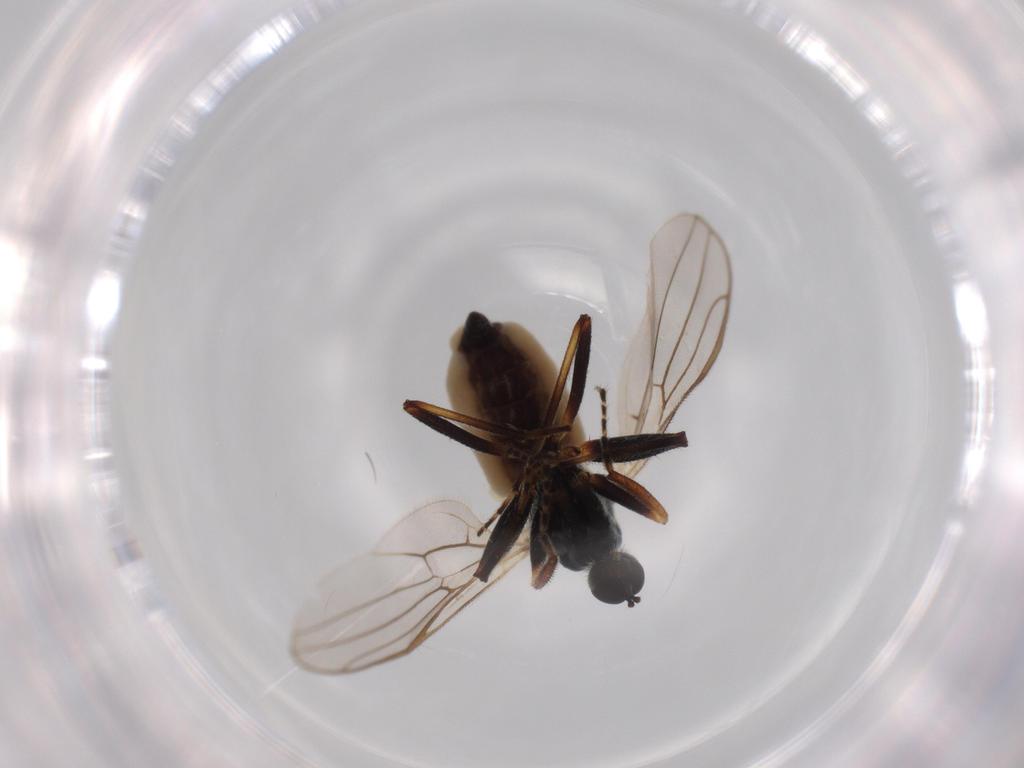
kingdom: Animalia
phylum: Arthropoda
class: Insecta
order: Diptera
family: Hybotidae
